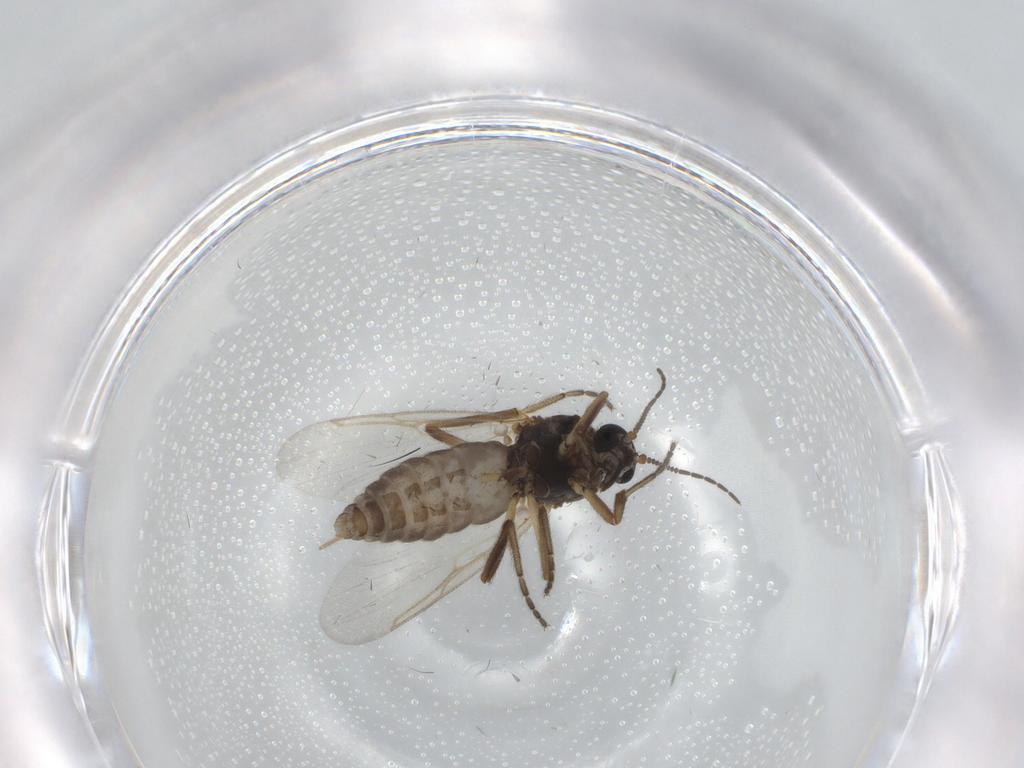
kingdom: Animalia
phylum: Arthropoda
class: Insecta
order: Diptera
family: Ceratopogonidae
